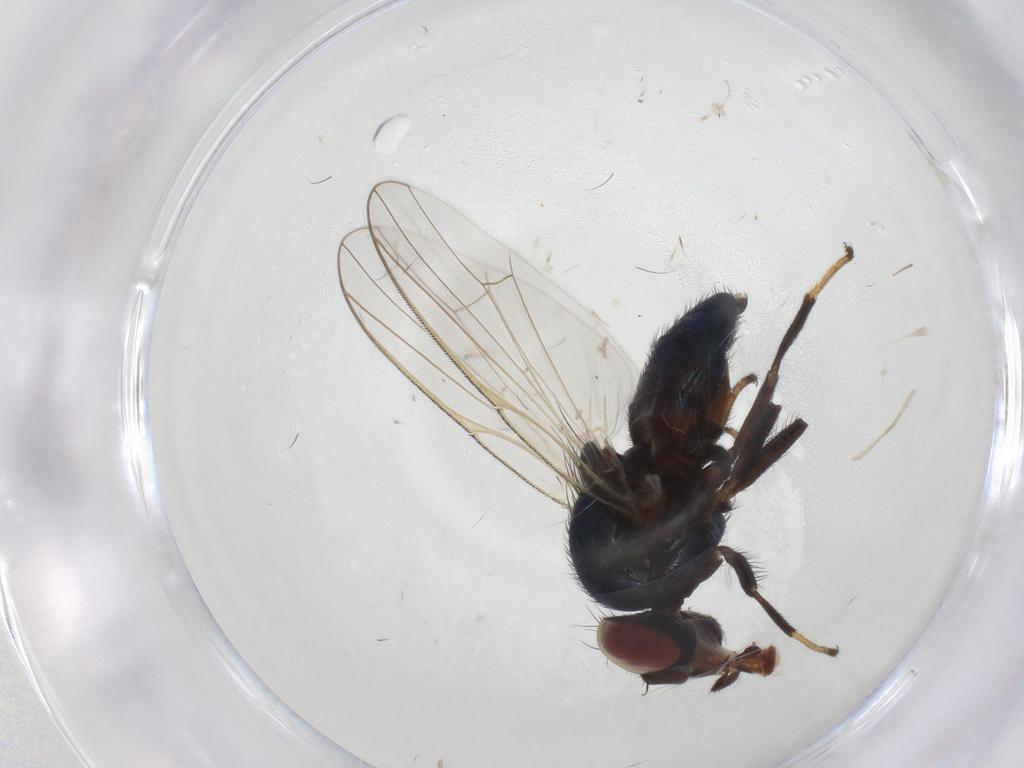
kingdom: Animalia
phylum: Arthropoda
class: Insecta
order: Diptera
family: Lonchaeidae
